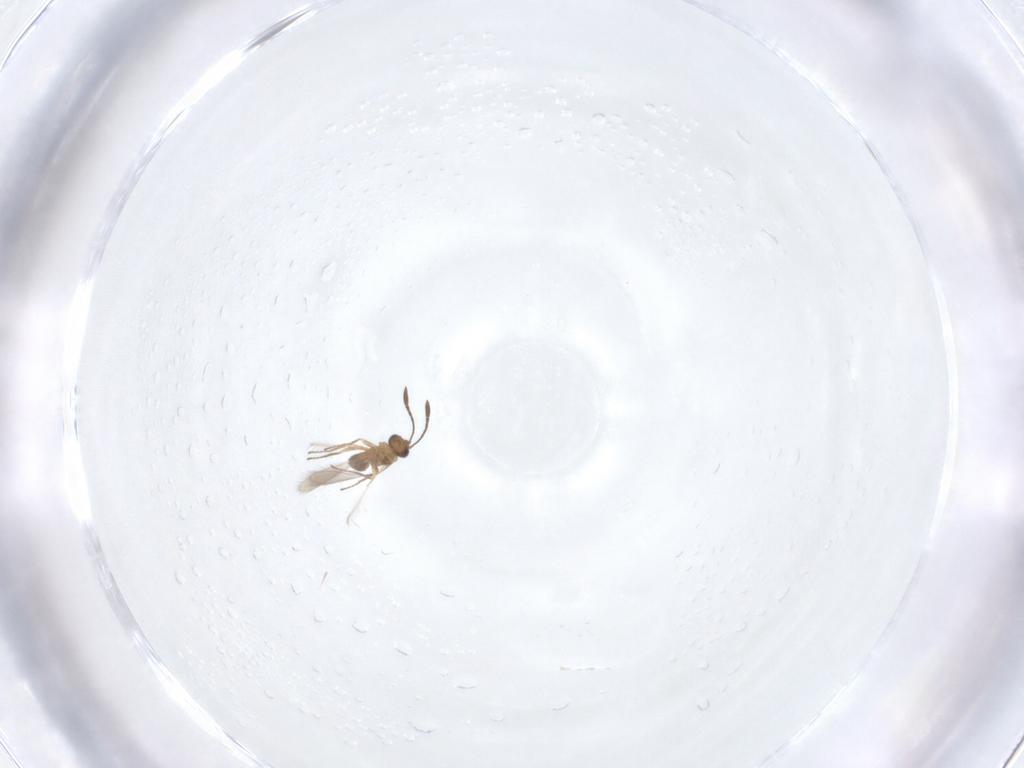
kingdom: Animalia
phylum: Arthropoda
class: Insecta
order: Hymenoptera
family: Mymaridae
